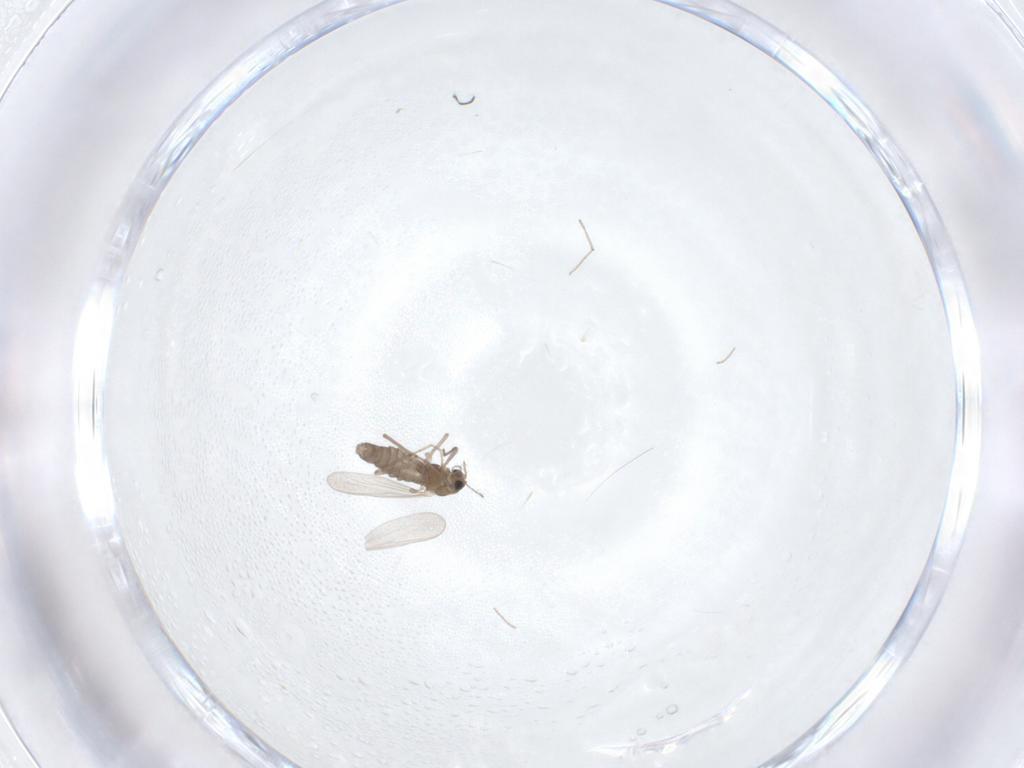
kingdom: Animalia
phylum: Arthropoda
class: Insecta
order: Diptera
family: Chironomidae
